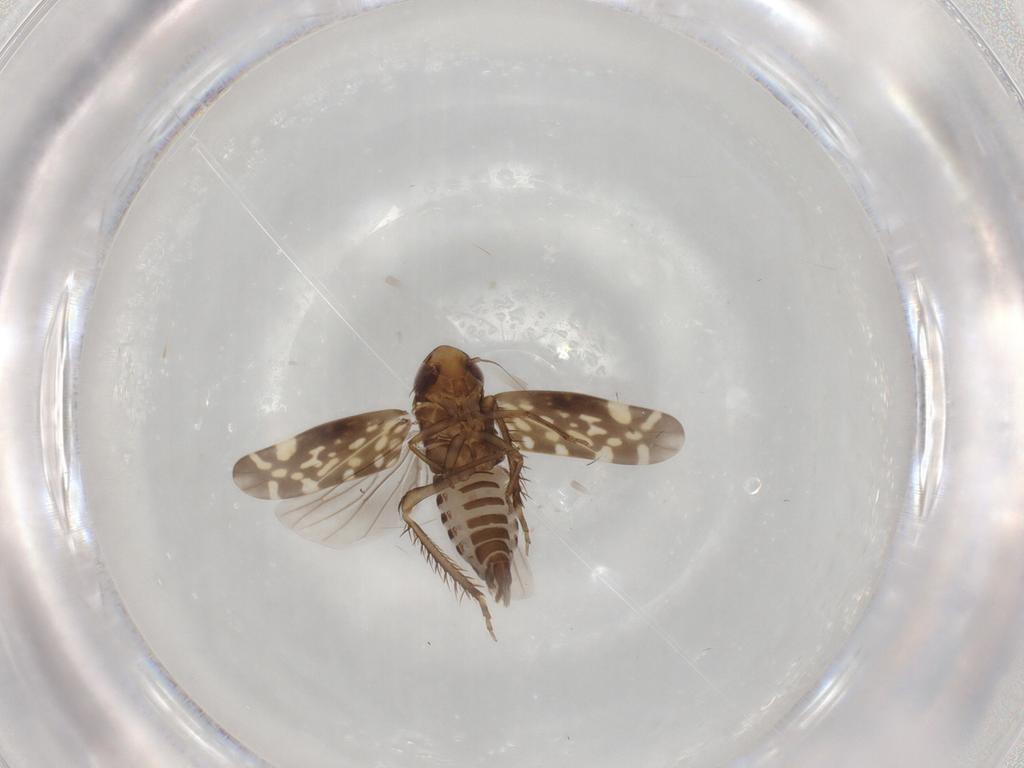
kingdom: Animalia
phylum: Arthropoda
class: Insecta
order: Hemiptera
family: Cicadellidae
